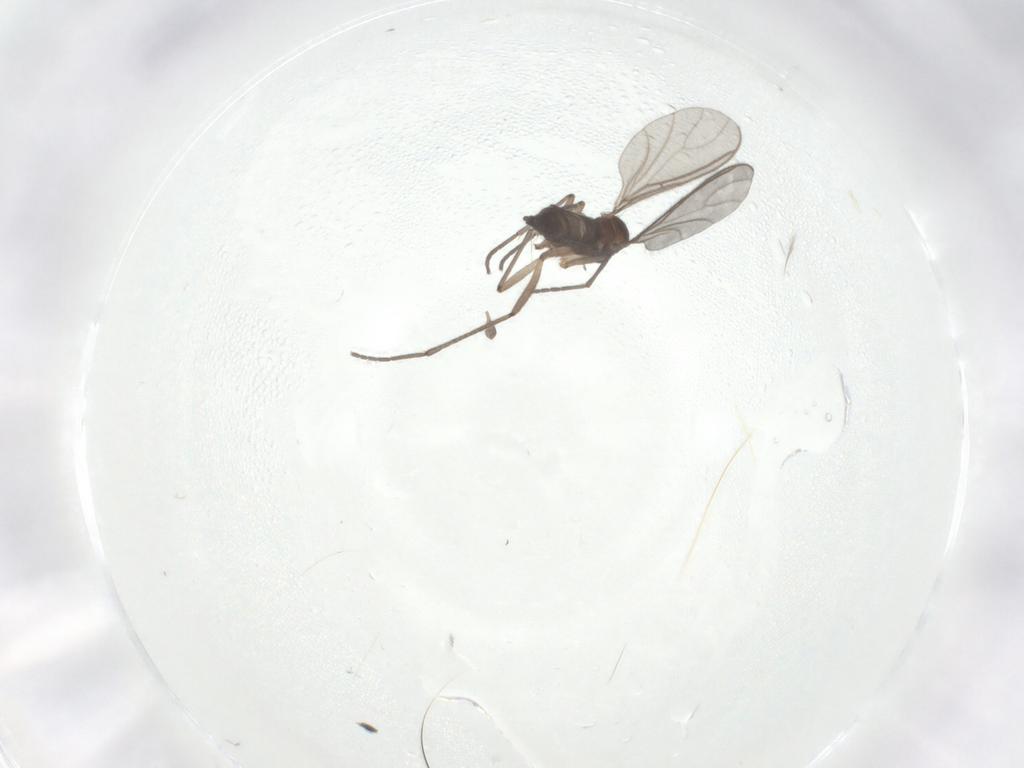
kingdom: Animalia
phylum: Arthropoda
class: Insecta
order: Diptera
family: Sciaridae
